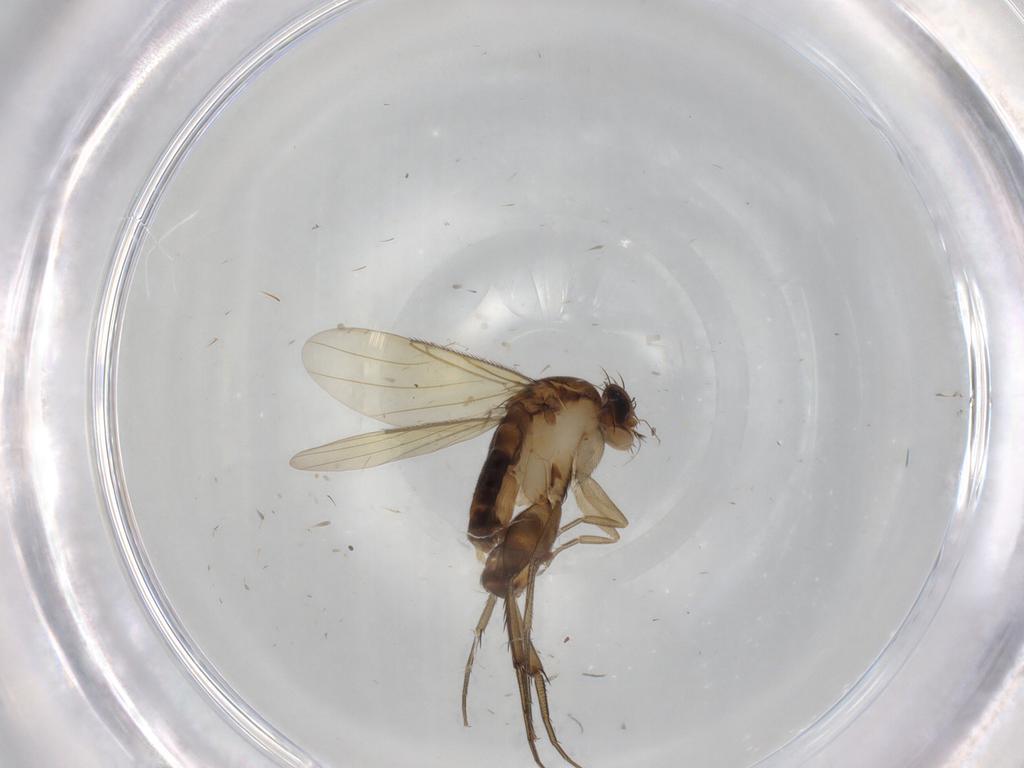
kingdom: Animalia
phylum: Arthropoda
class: Insecta
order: Diptera
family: Phoridae
